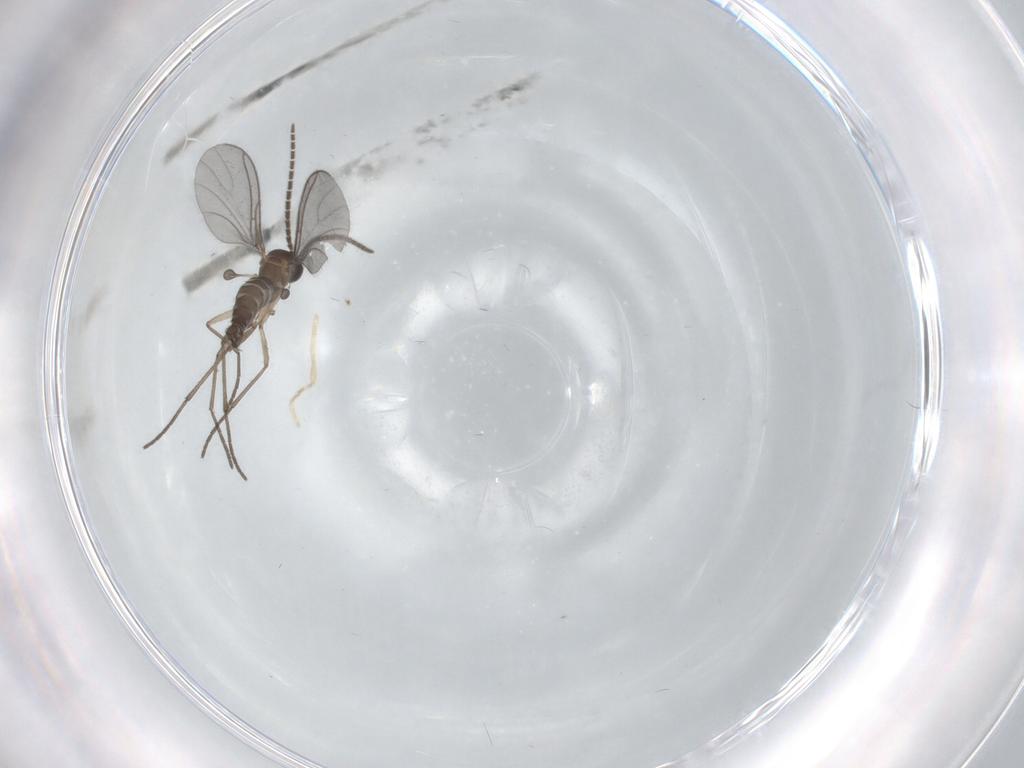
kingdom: Animalia
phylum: Arthropoda
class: Insecta
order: Diptera
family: Sciaridae
